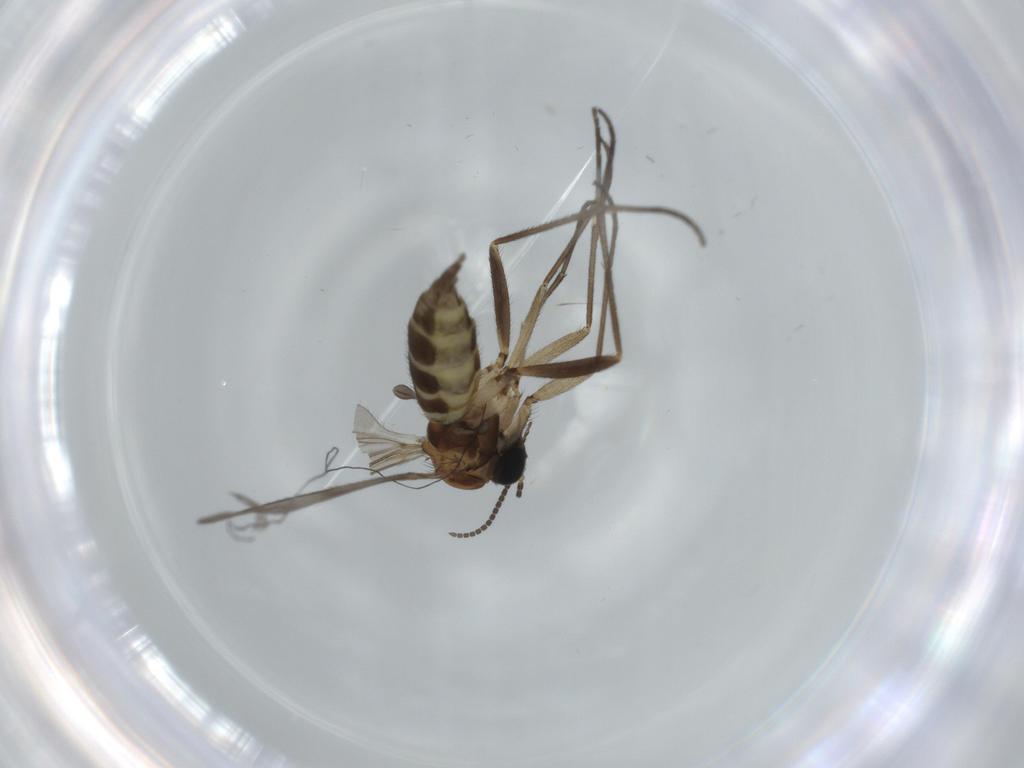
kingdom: Animalia
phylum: Arthropoda
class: Insecta
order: Diptera
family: Sciaridae
